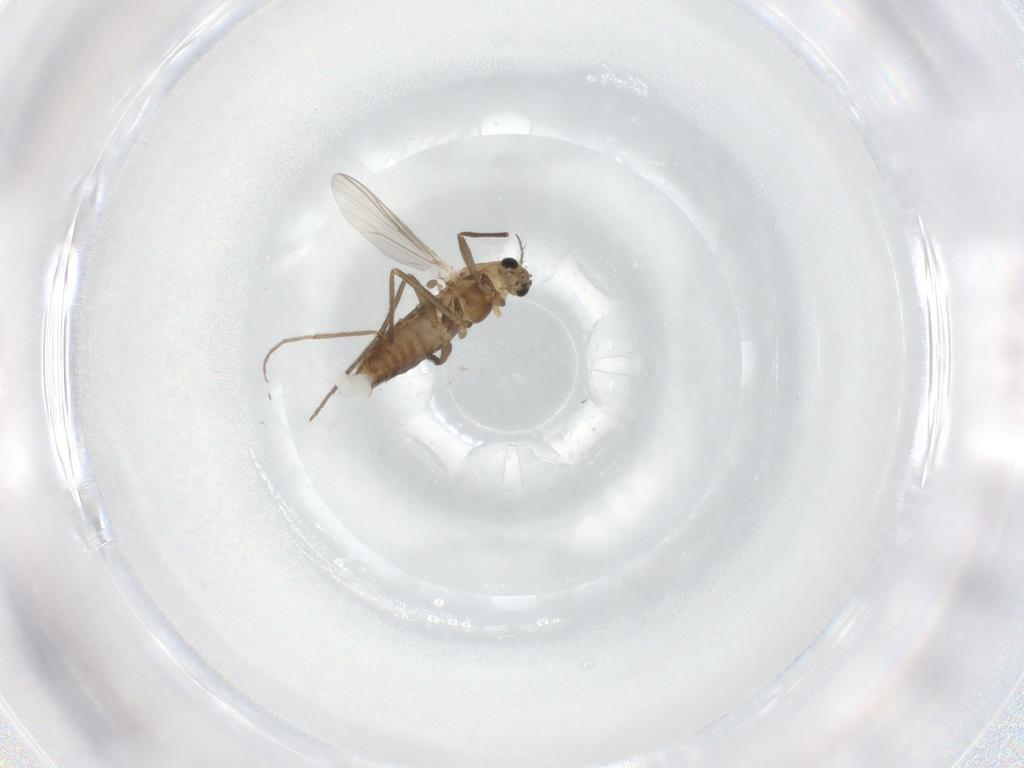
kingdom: Animalia
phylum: Arthropoda
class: Insecta
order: Diptera
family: Chironomidae
